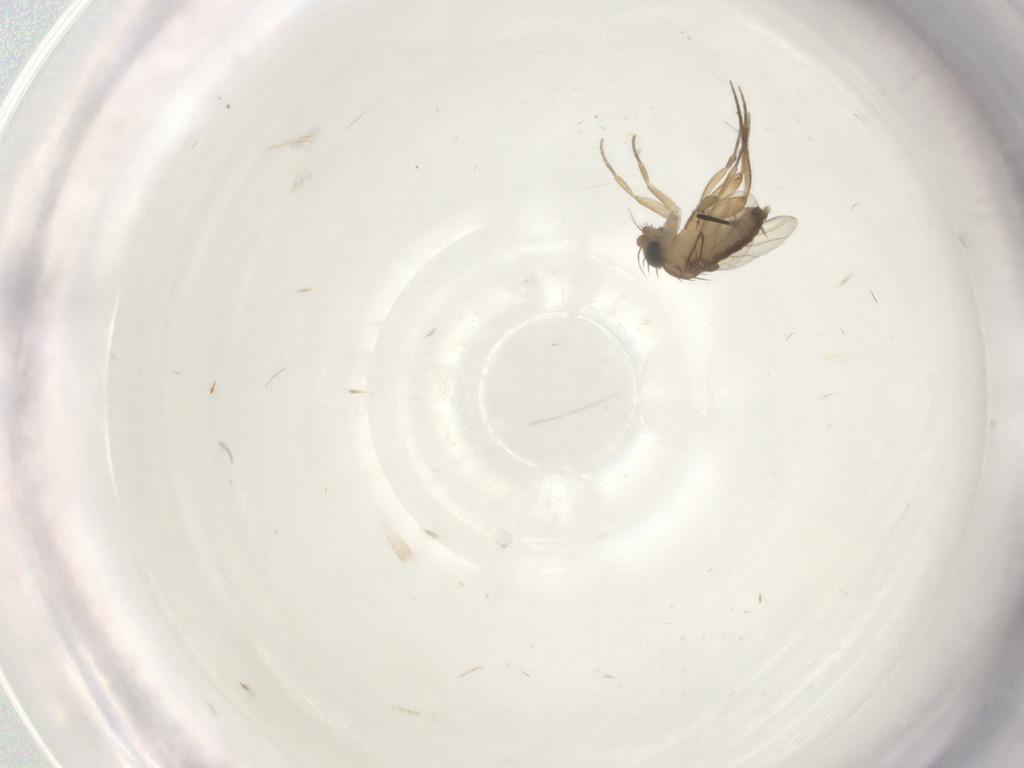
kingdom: Animalia
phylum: Arthropoda
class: Insecta
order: Diptera
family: Phoridae
